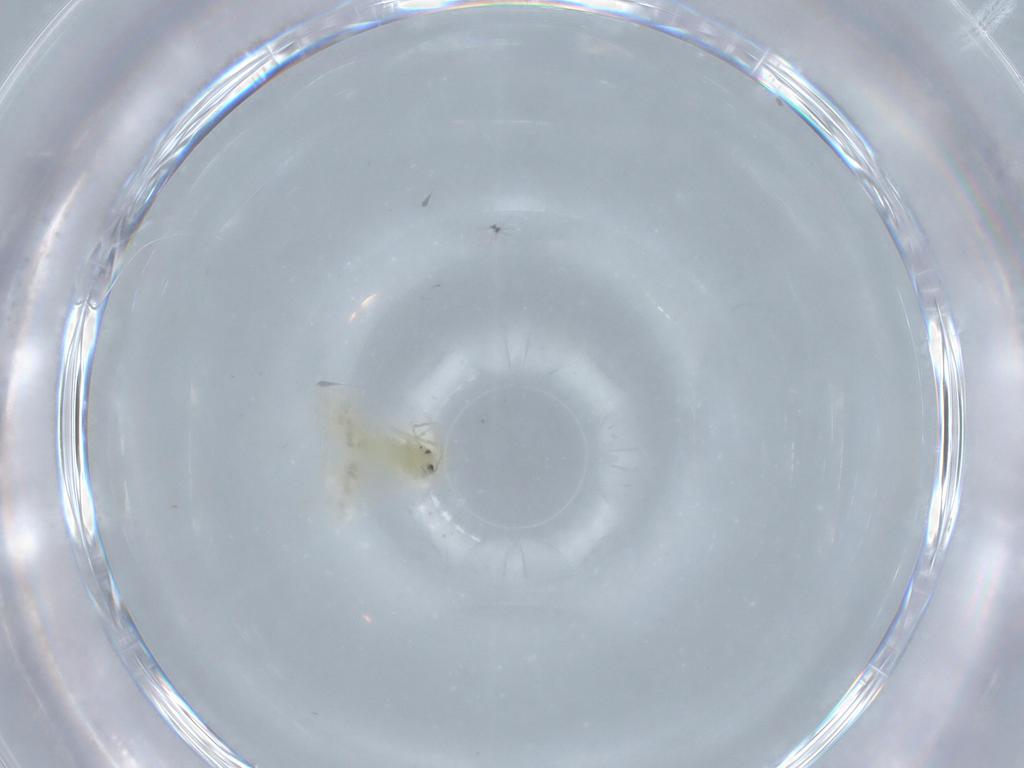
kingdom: Animalia
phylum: Arthropoda
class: Insecta
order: Hemiptera
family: Aleyrodidae
